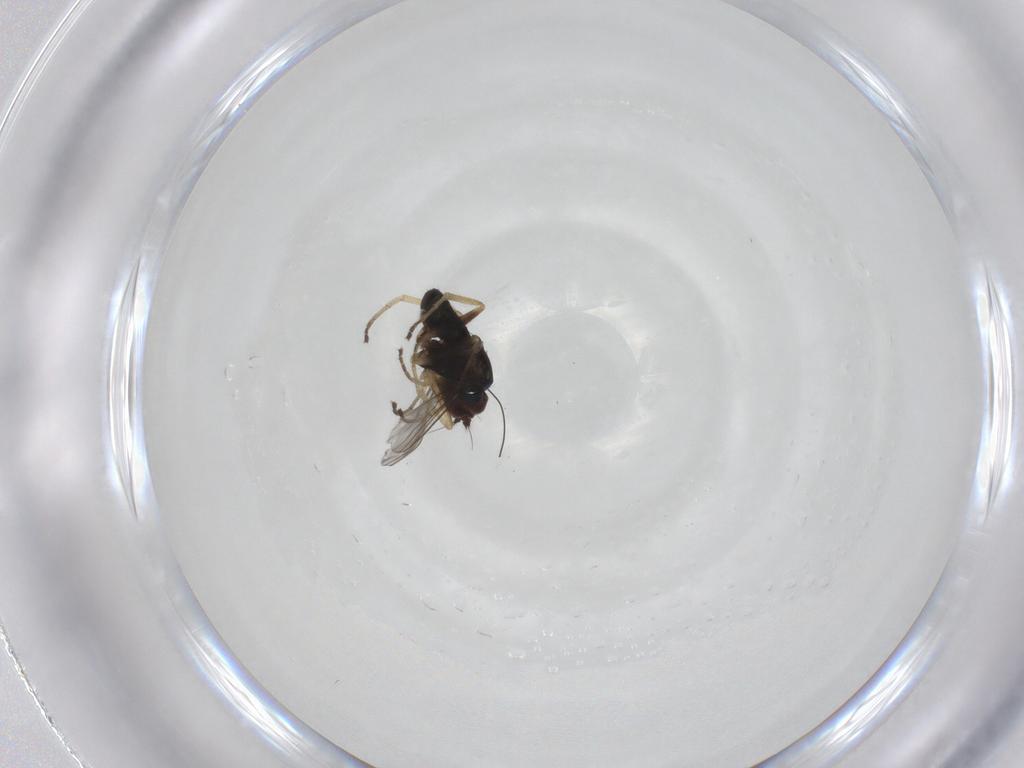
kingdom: Animalia
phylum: Arthropoda
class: Insecta
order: Diptera
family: Dolichopodidae
